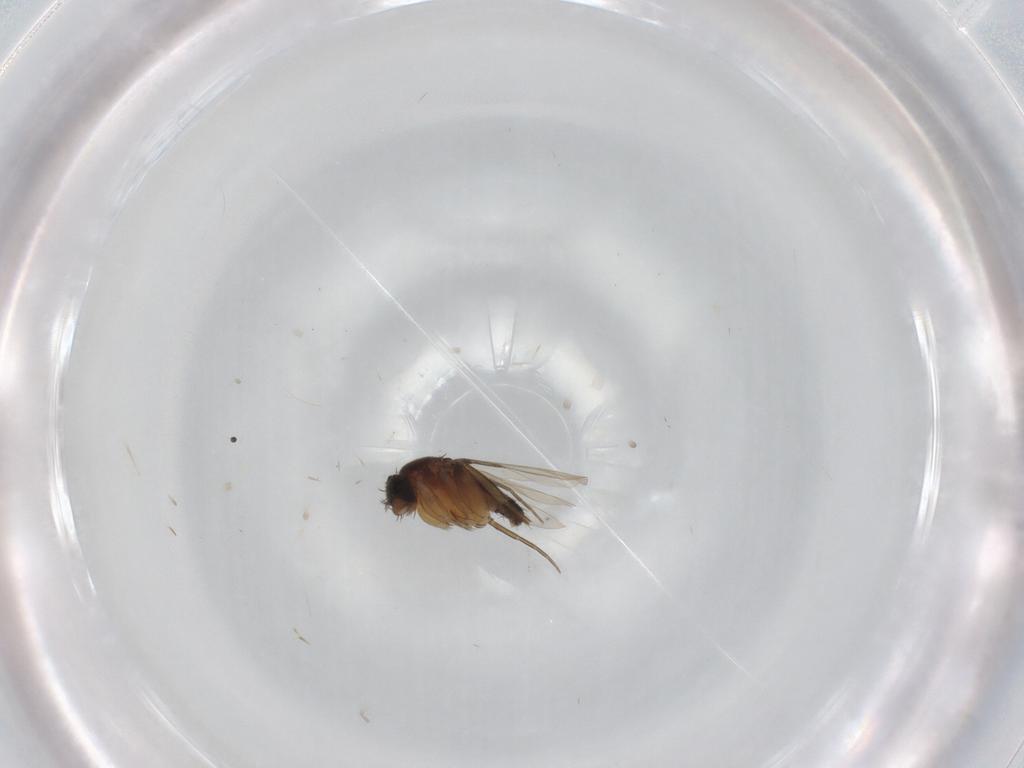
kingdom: Animalia
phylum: Arthropoda
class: Insecta
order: Diptera
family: Phoridae
